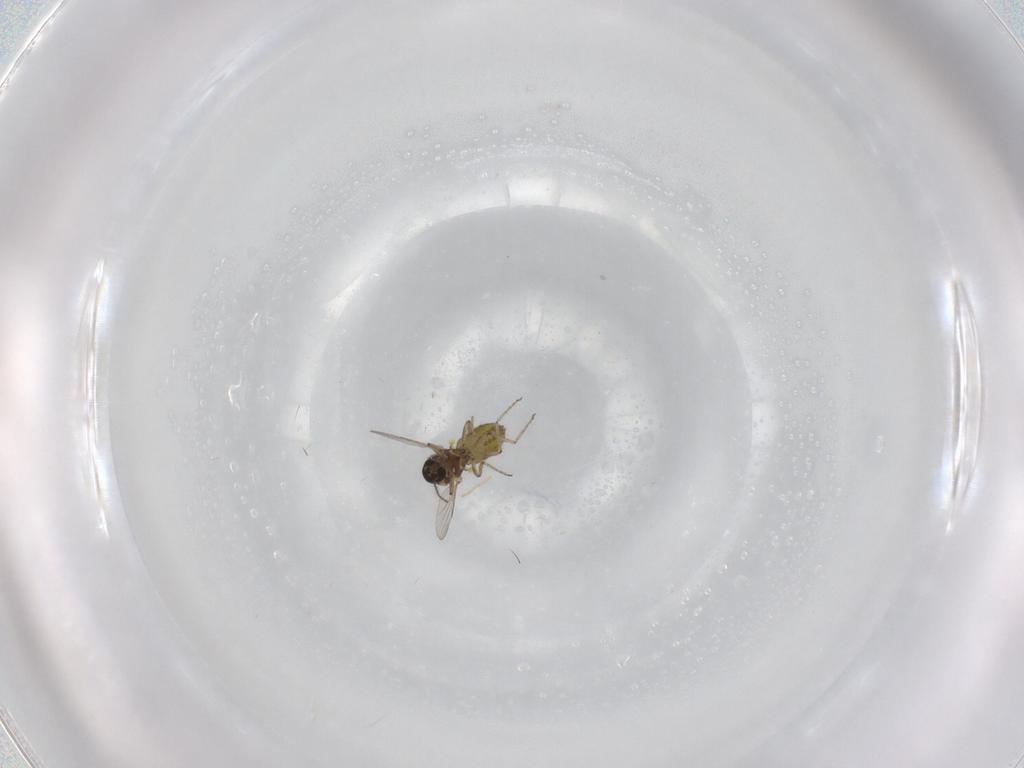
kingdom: Animalia
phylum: Arthropoda
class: Insecta
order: Diptera
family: Ceratopogonidae
